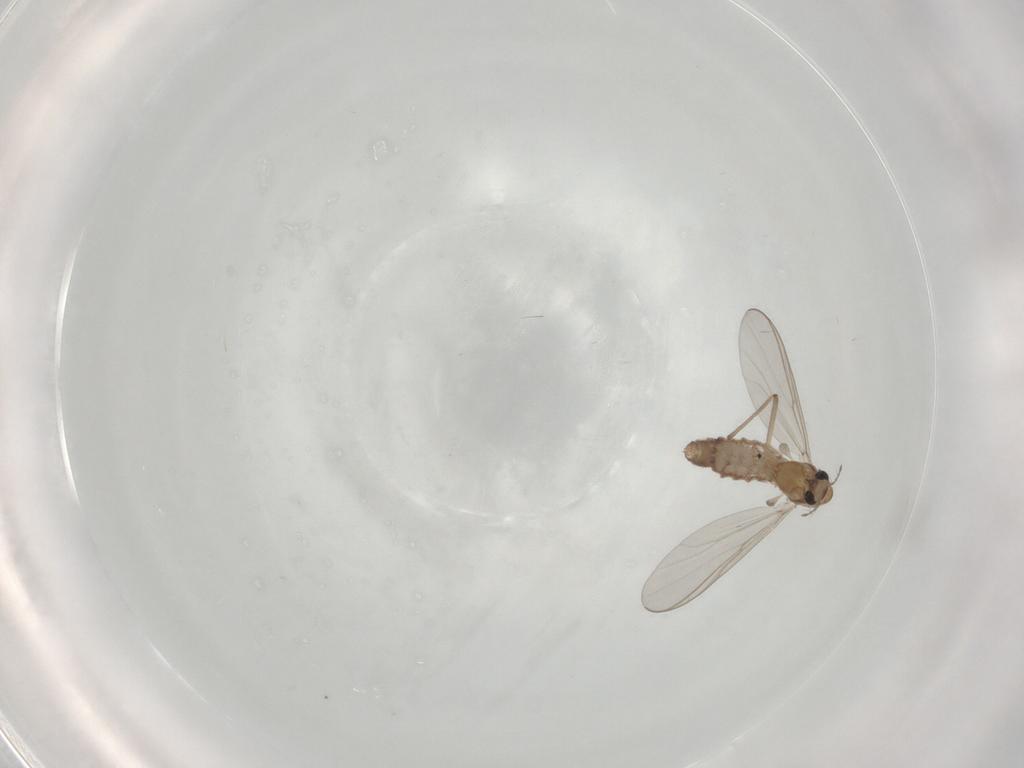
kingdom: Animalia
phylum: Arthropoda
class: Insecta
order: Diptera
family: Chironomidae
